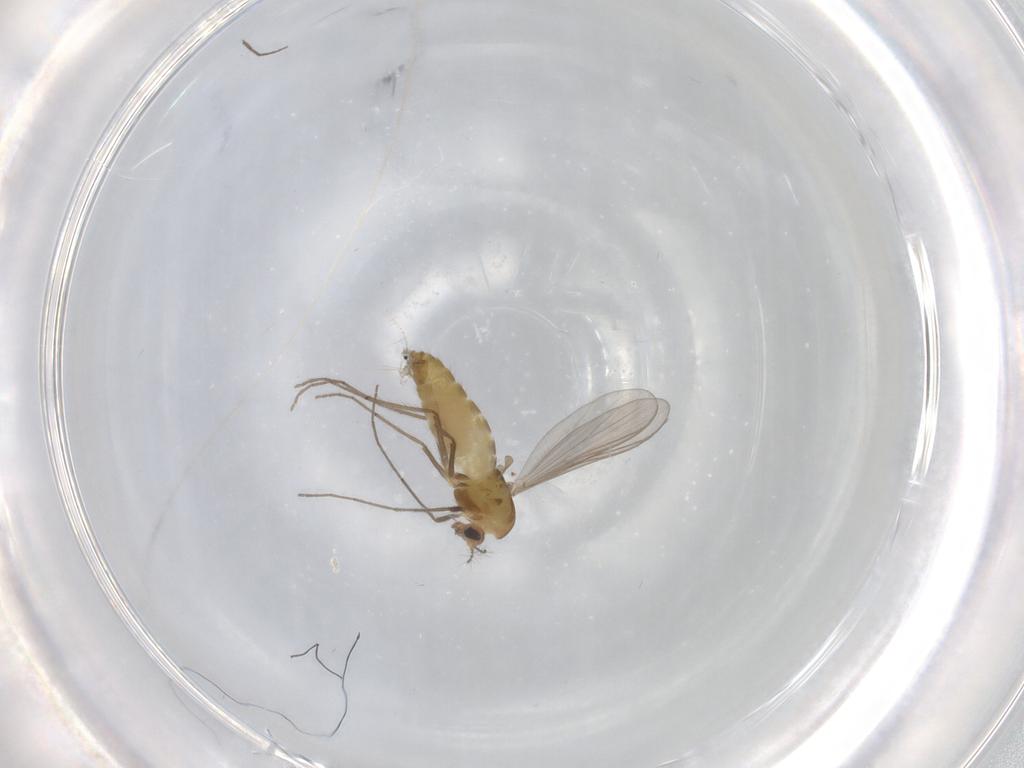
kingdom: Animalia
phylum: Arthropoda
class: Insecta
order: Diptera
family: Chironomidae
